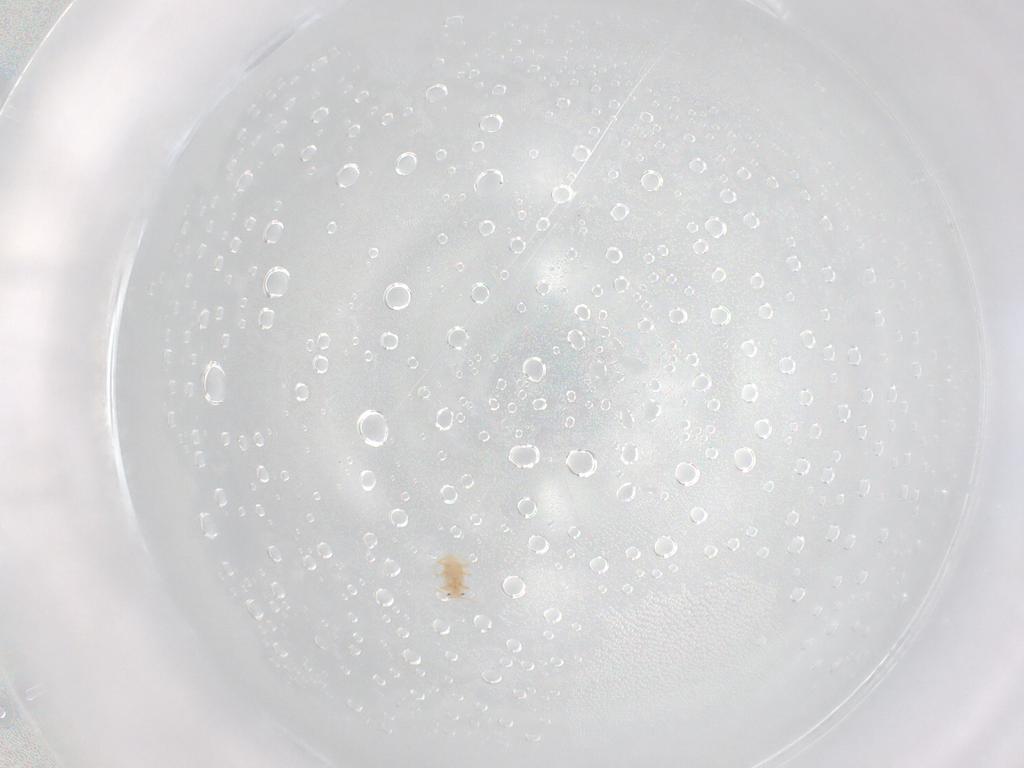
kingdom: Animalia
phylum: Arthropoda
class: Insecta
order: Hemiptera
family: Cicadellidae
